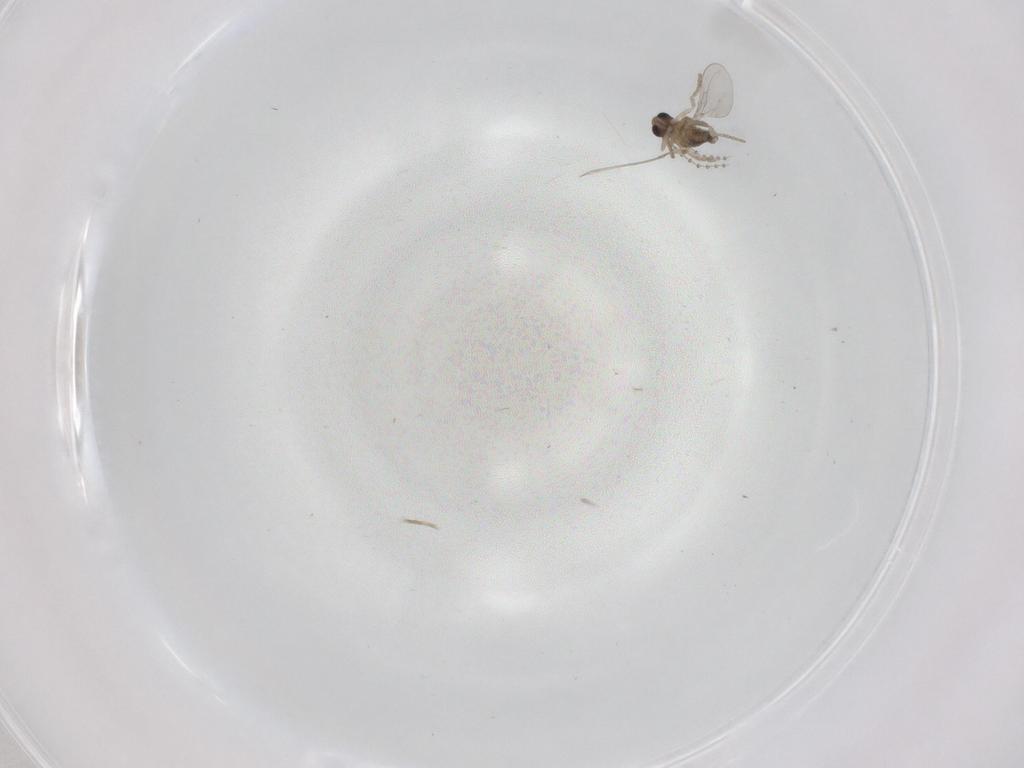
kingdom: Animalia
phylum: Arthropoda
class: Insecta
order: Diptera
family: Cecidomyiidae
